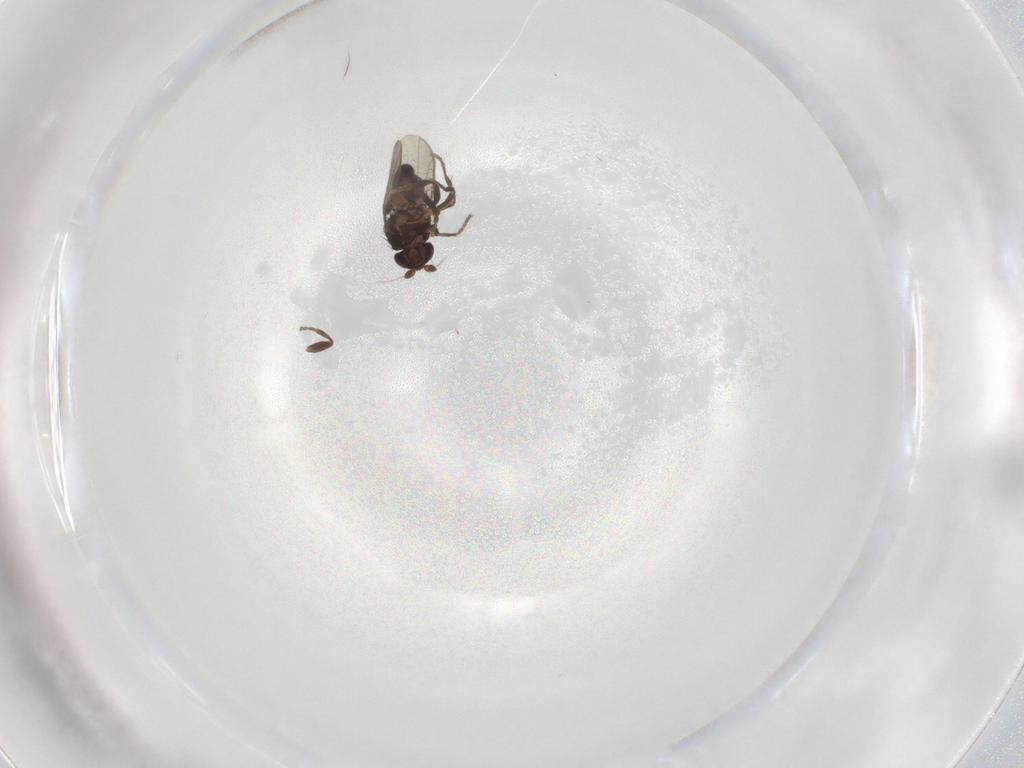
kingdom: Animalia
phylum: Arthropoda
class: Insecta
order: Diptera
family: Sphaeroceridae
